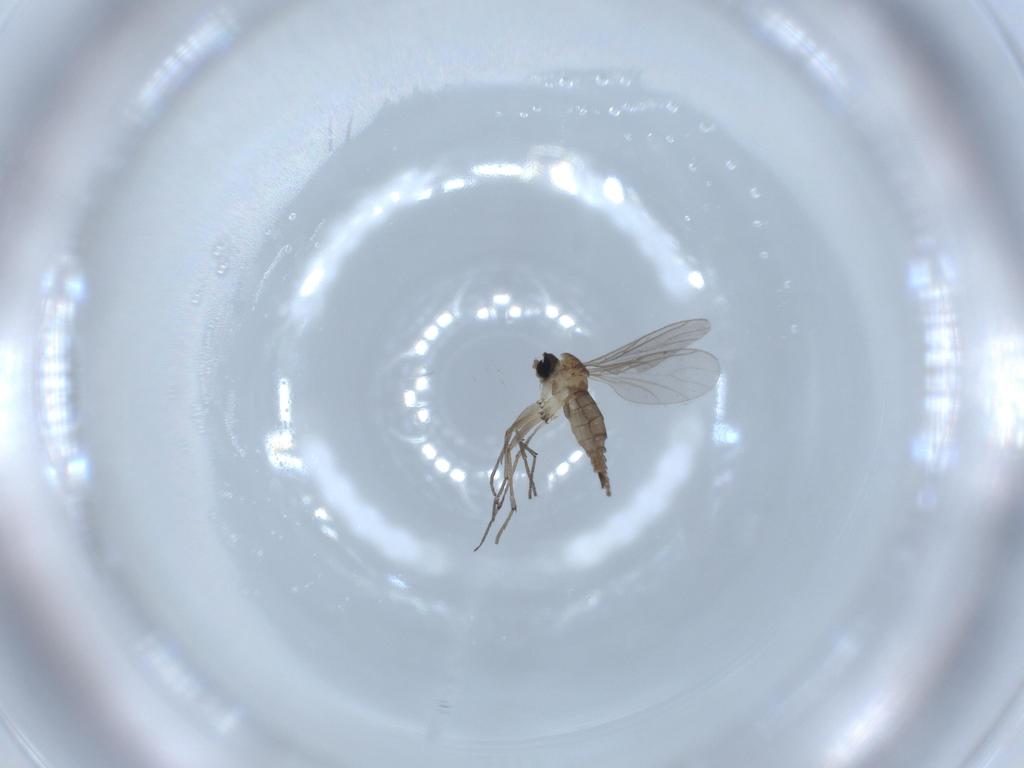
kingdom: Animalia
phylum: Arthropoda
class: Insecta
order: Diptera
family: Sciaridae
